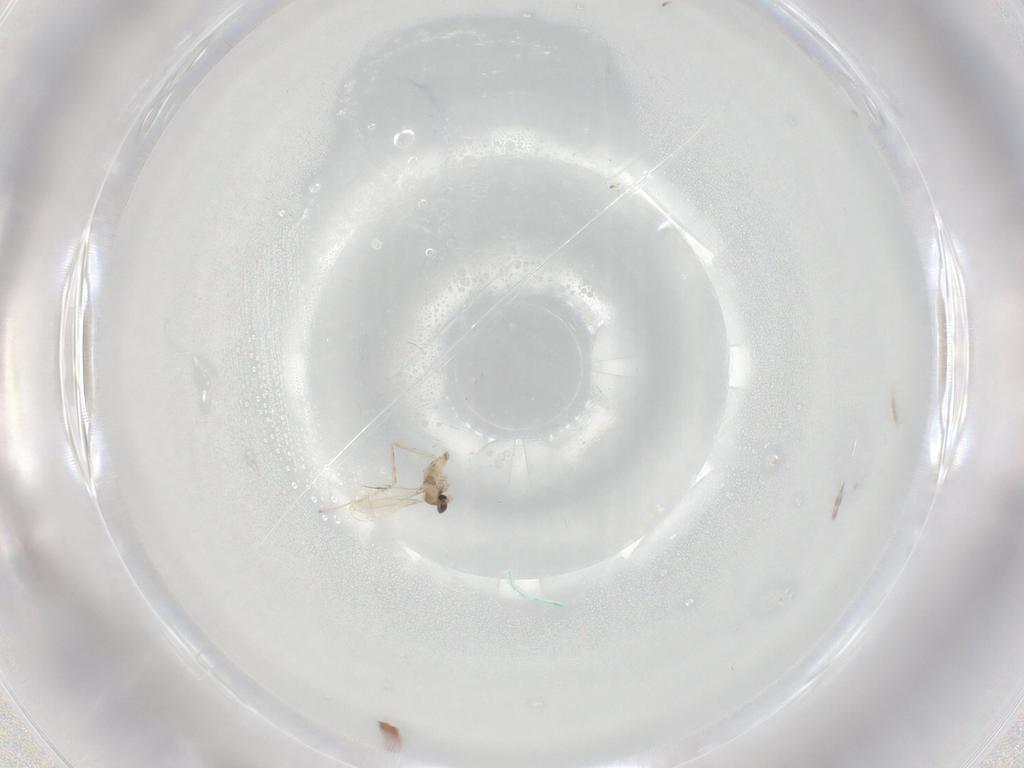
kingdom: Animalia
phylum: Arthropoda
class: Insecta
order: Diptera
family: Cecidomyiidae
